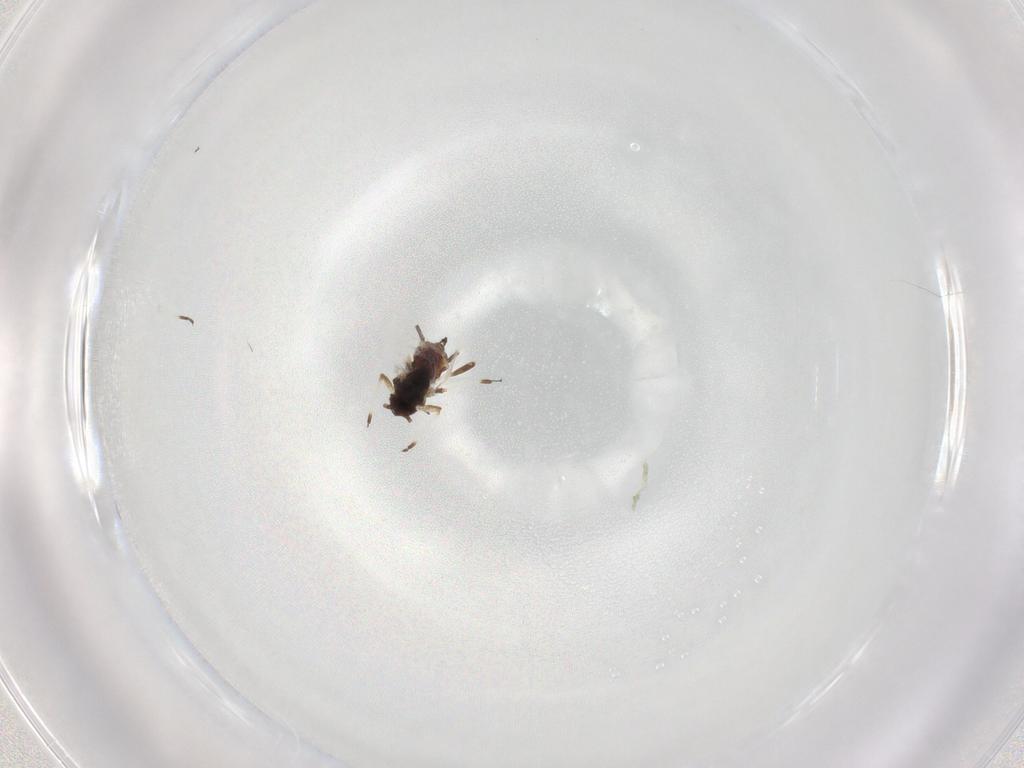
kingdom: Animalia
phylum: Arthropoda
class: Insecta
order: Hemiptera
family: Aphididae
